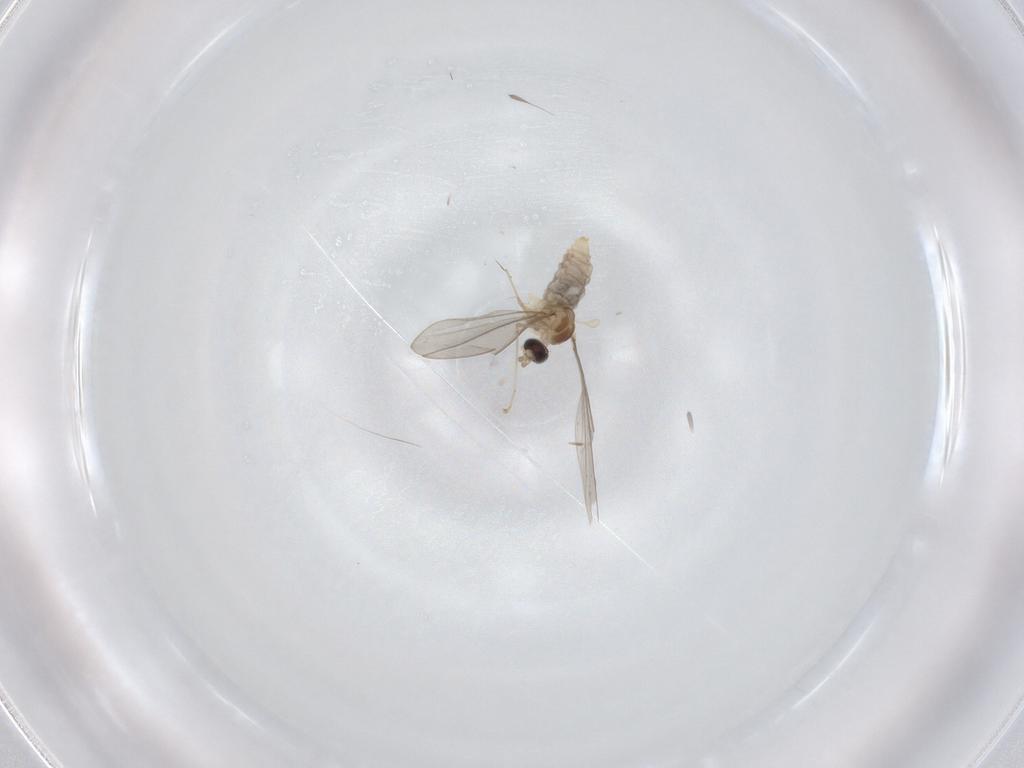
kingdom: Animalia
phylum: Arthropoda
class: Insecta
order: Diptera
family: Cecidomyiidae
